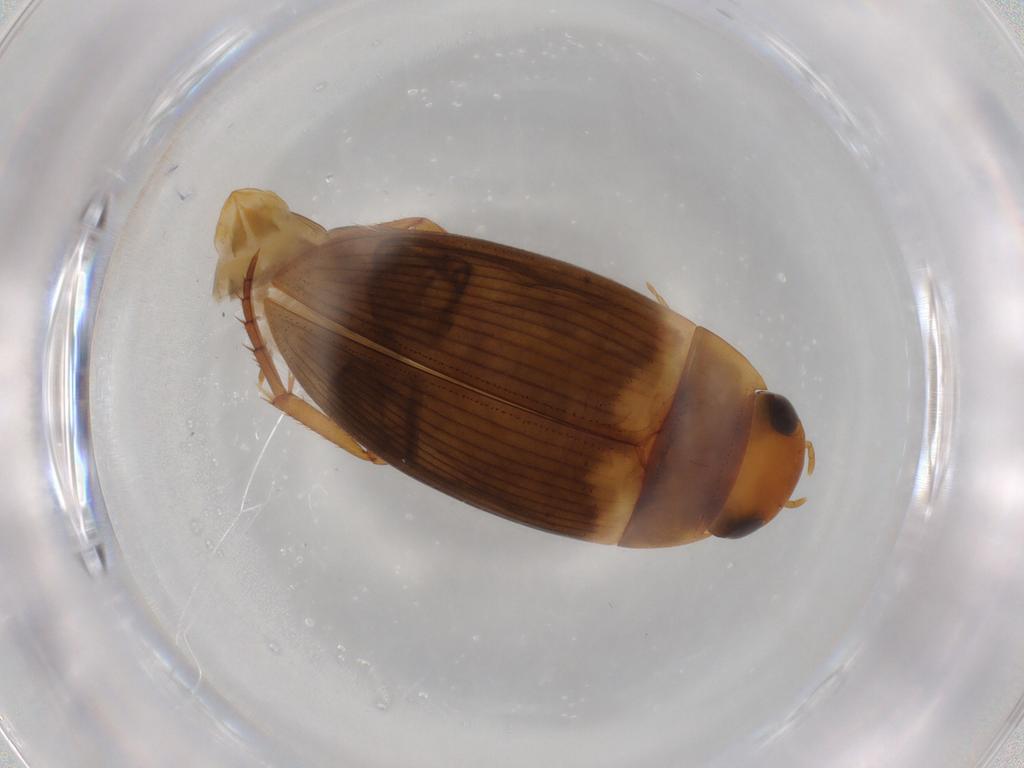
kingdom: Animalia
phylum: Arthropoda
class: Insecta
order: Coleoptera
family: Dytiscidae
